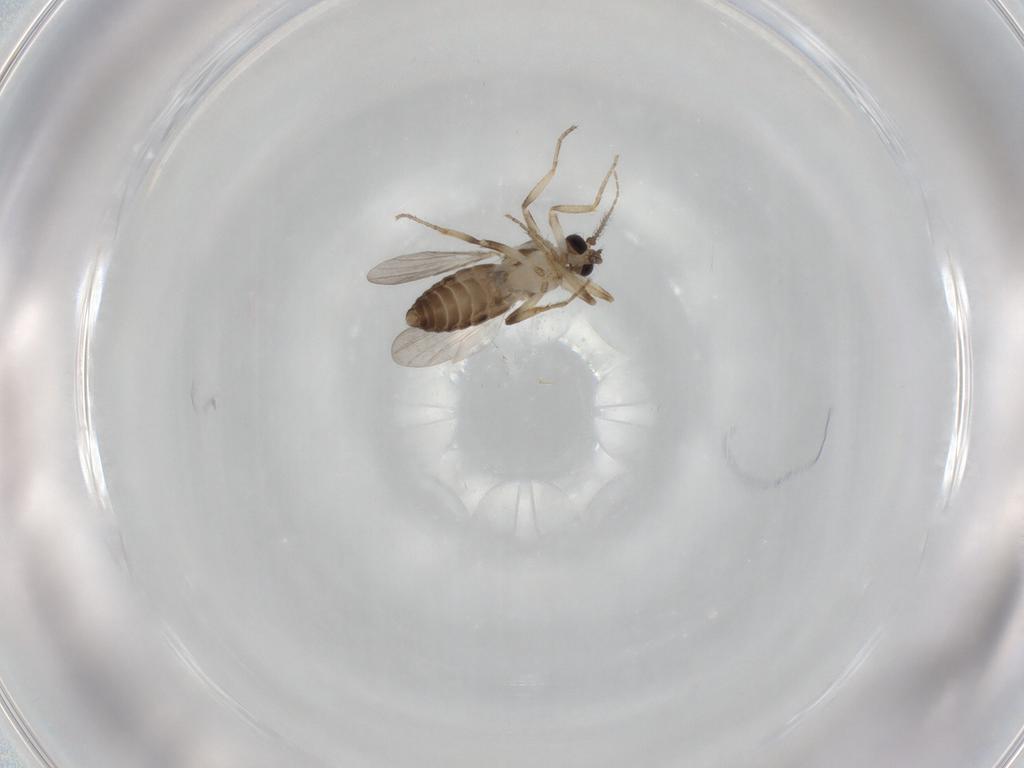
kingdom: Animalia
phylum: Arthropoda
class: Insecta
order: Diptera
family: Ceratopogonidae
